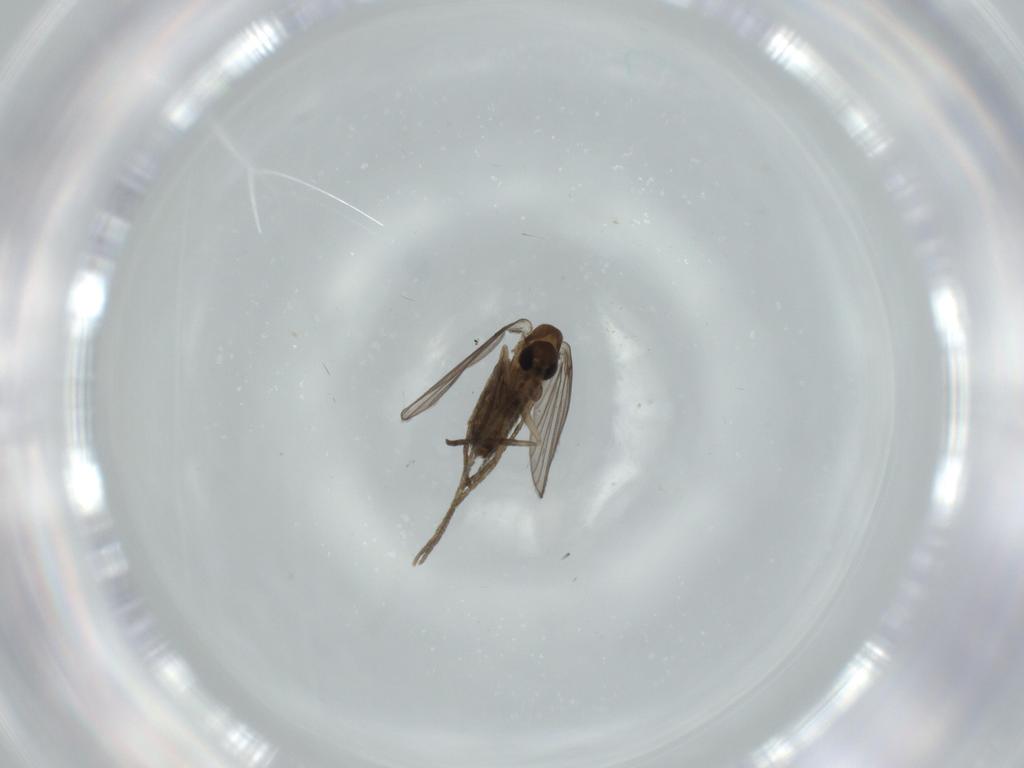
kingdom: Animalia
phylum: Arthropoda
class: Insecta
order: Diptera
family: Psychodidae
